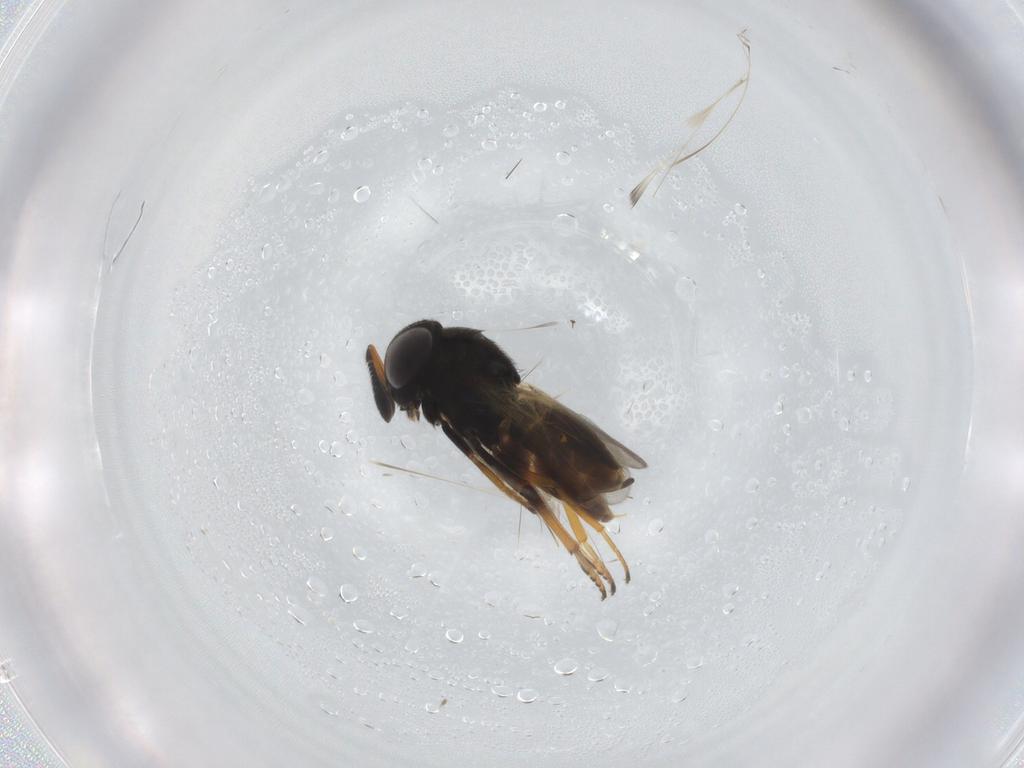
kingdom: Animalia
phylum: Arthropoda
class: Insecta
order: Hymenoptera
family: Encyrtidae
